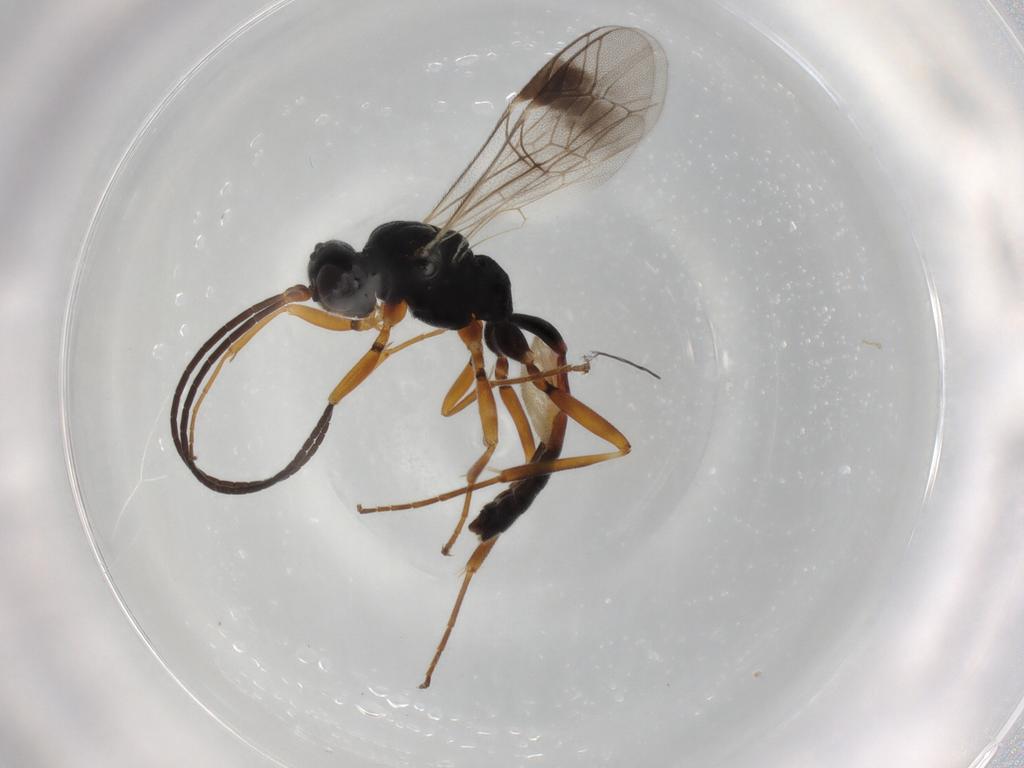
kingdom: Animalia
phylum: Arthropoda
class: Insecta
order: Hymenoptera
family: Ichneumonidae
